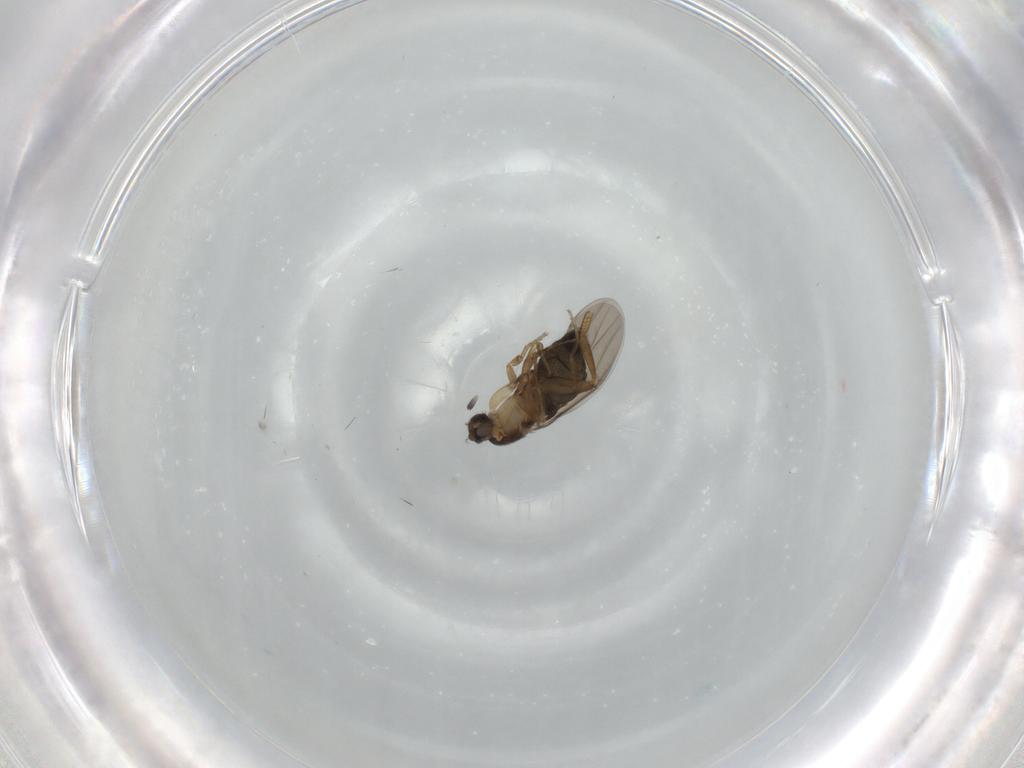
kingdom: Animalia
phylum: Arthropoda
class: Insecta
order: Diptera
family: Phoridae
